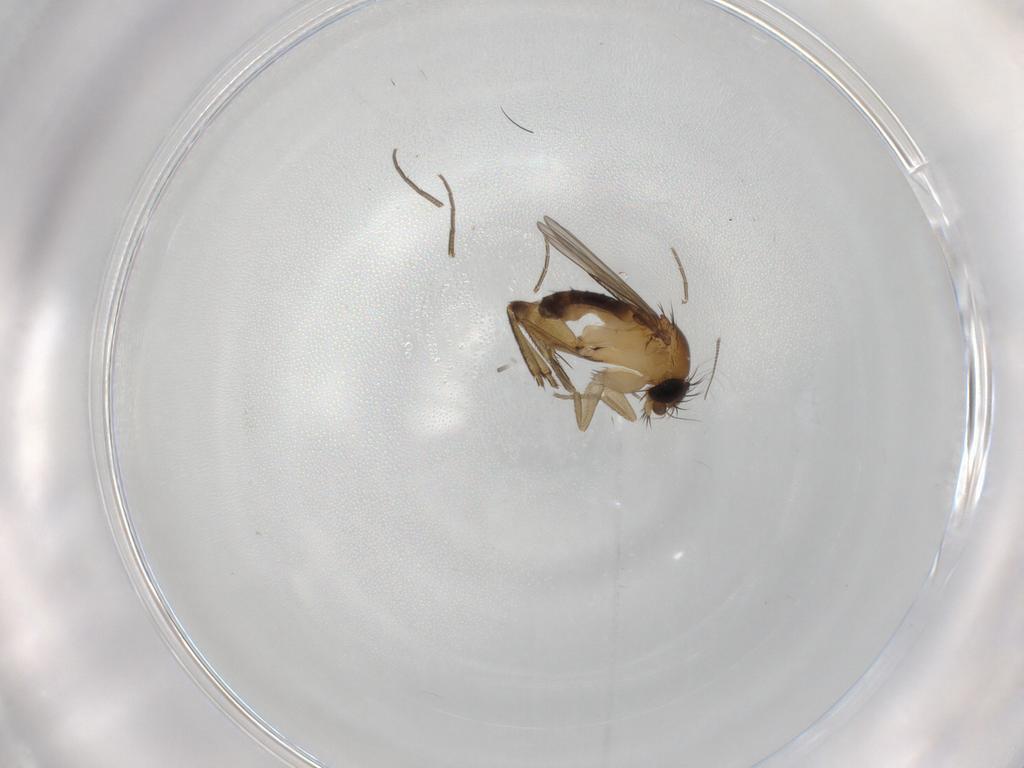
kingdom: Animalia
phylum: Arthropoda
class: Insecta
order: Diptera
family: Phoridae
